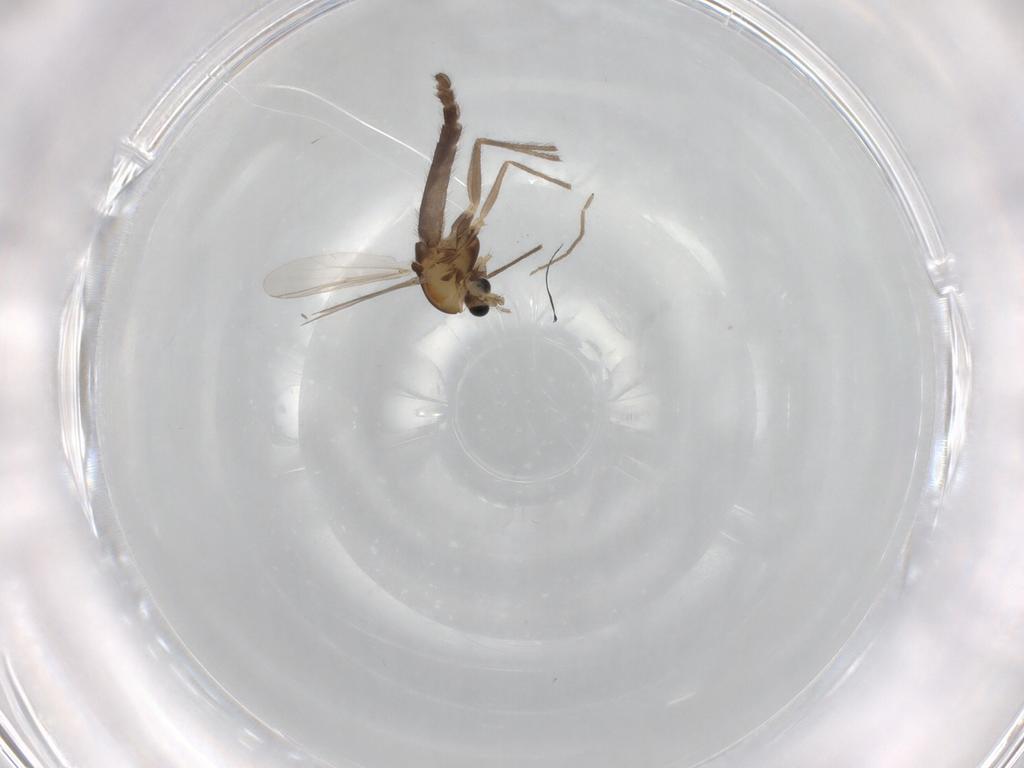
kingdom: Animalia
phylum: Arthropoda
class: Insecta
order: Diptera
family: Chironomidae
